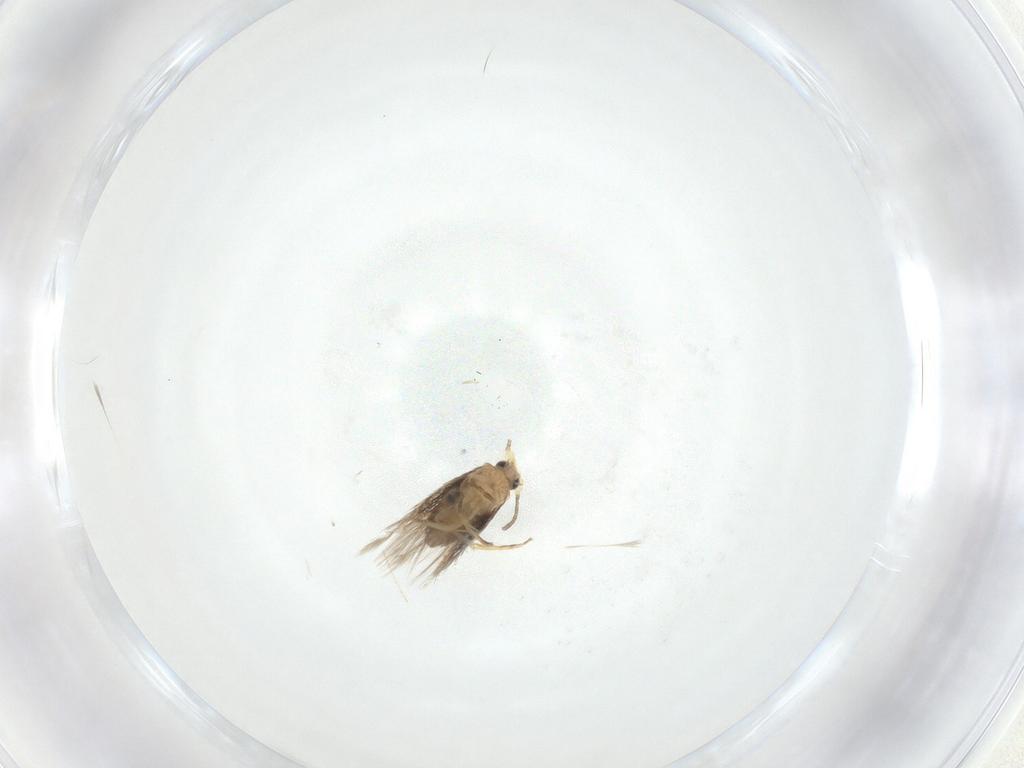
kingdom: Animalia
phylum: Arthropoda
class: Insecta
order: Lepidoptera
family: Nepticulidae
